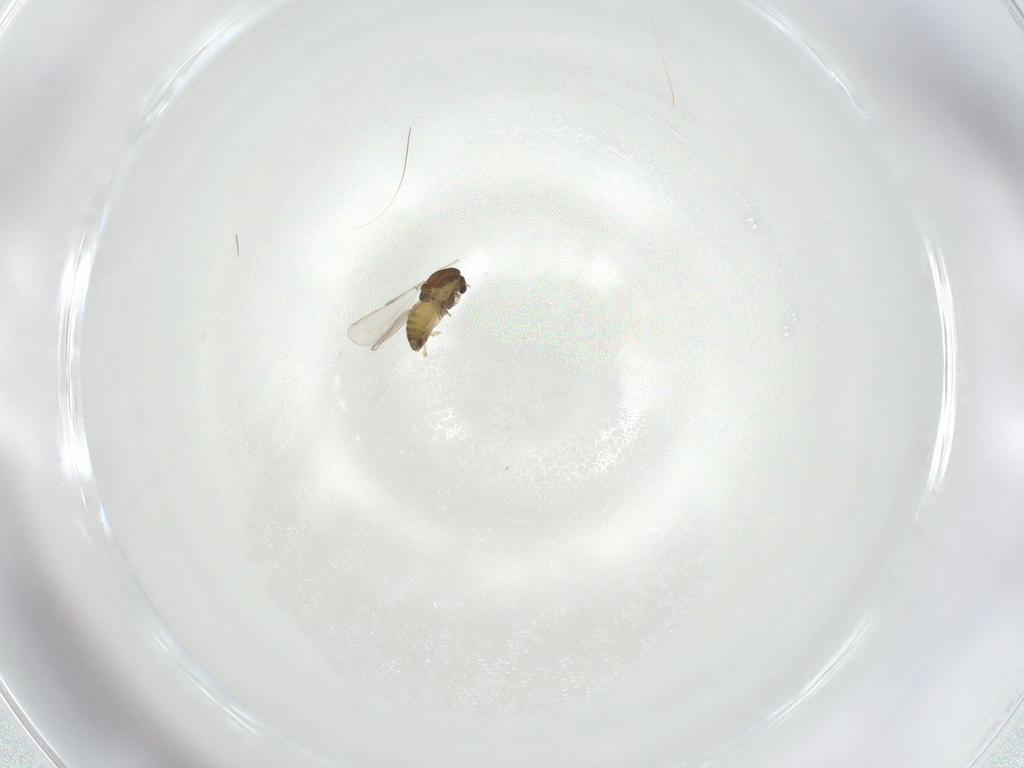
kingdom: Animalia
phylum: Arthropoda
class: Insecta
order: Diptera
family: Chironomidae
